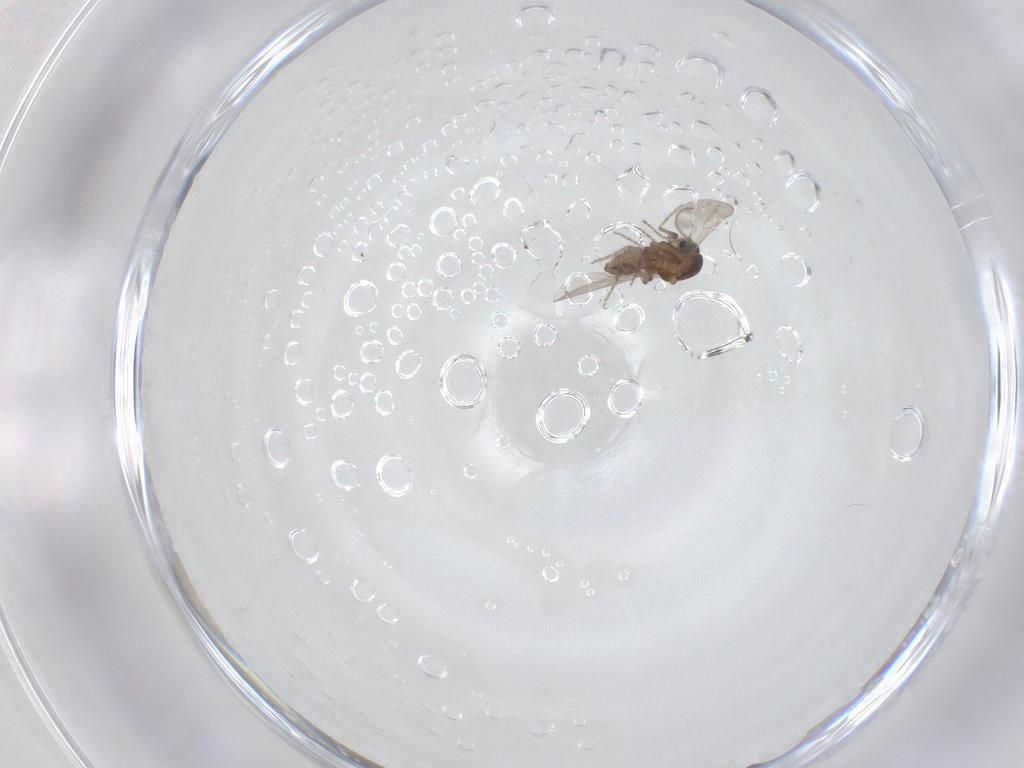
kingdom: Animalia
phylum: Arthropoda
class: Insecta
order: Diptera
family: Ceratopogonidae
